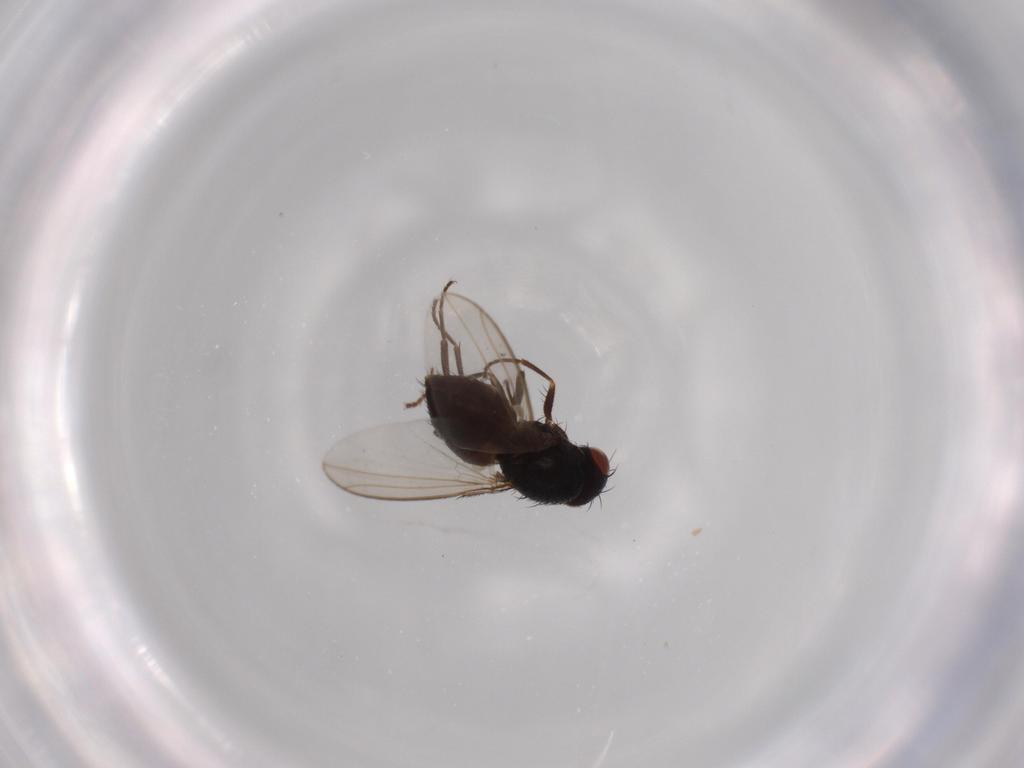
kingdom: Animalia
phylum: Arthropoda
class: Insecta
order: Diptera
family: Carnidae
